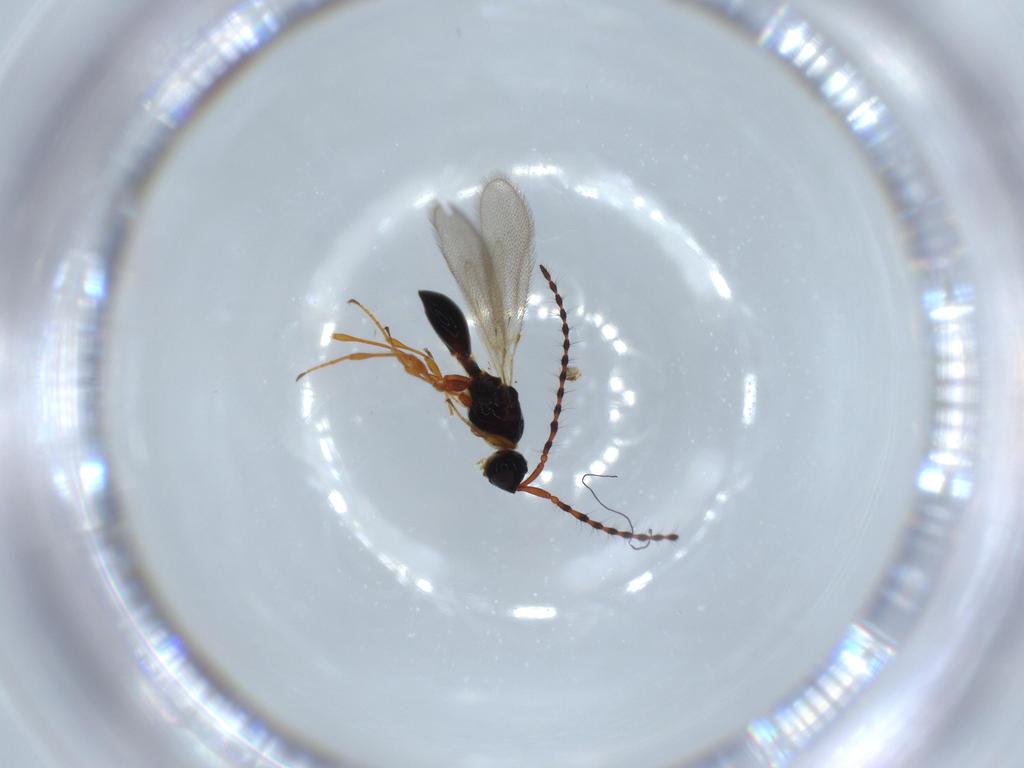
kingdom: Animalia
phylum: Arthropoda
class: Insecta
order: Hymenoptera
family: Diapriidae
